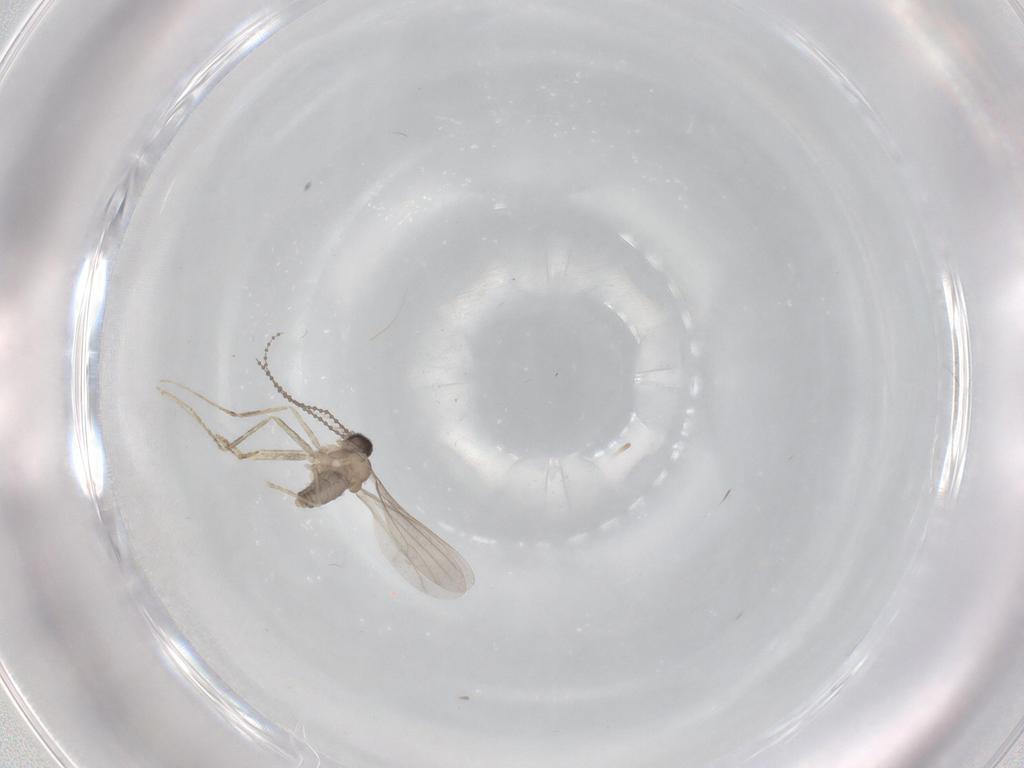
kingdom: Animalia
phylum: Arthropoda
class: Insecta
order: Diptera
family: Cecidomyiidae
